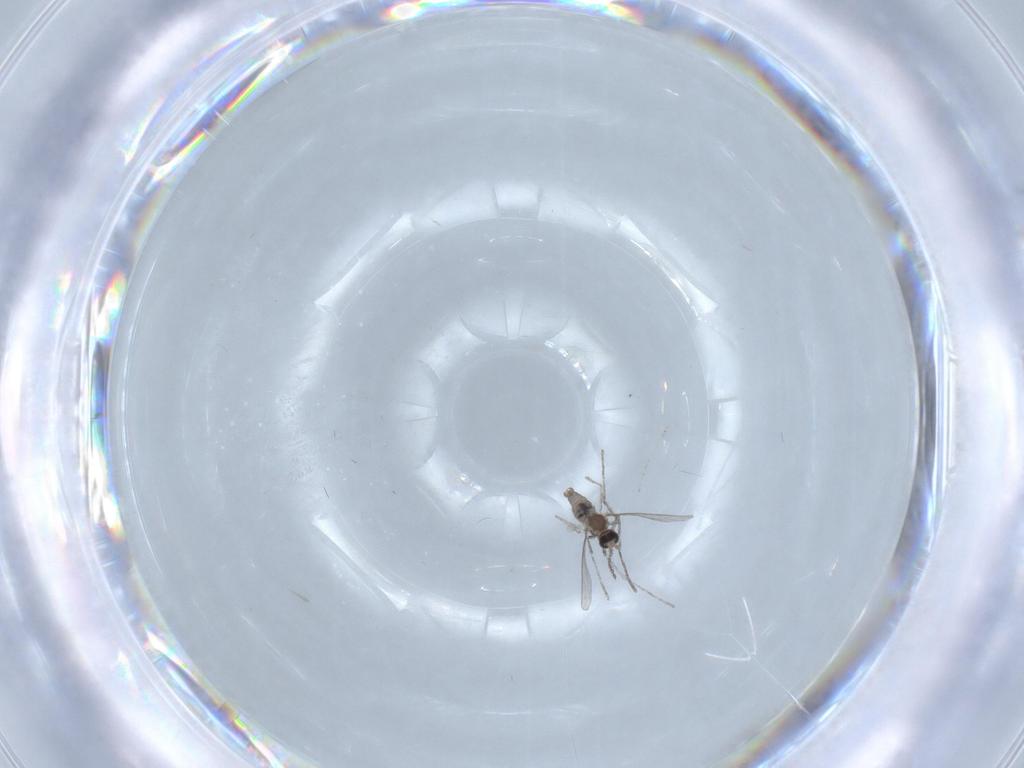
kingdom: Animalia
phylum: Arthropoda
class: Insecta
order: Diptera
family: Cecidomyiidae
